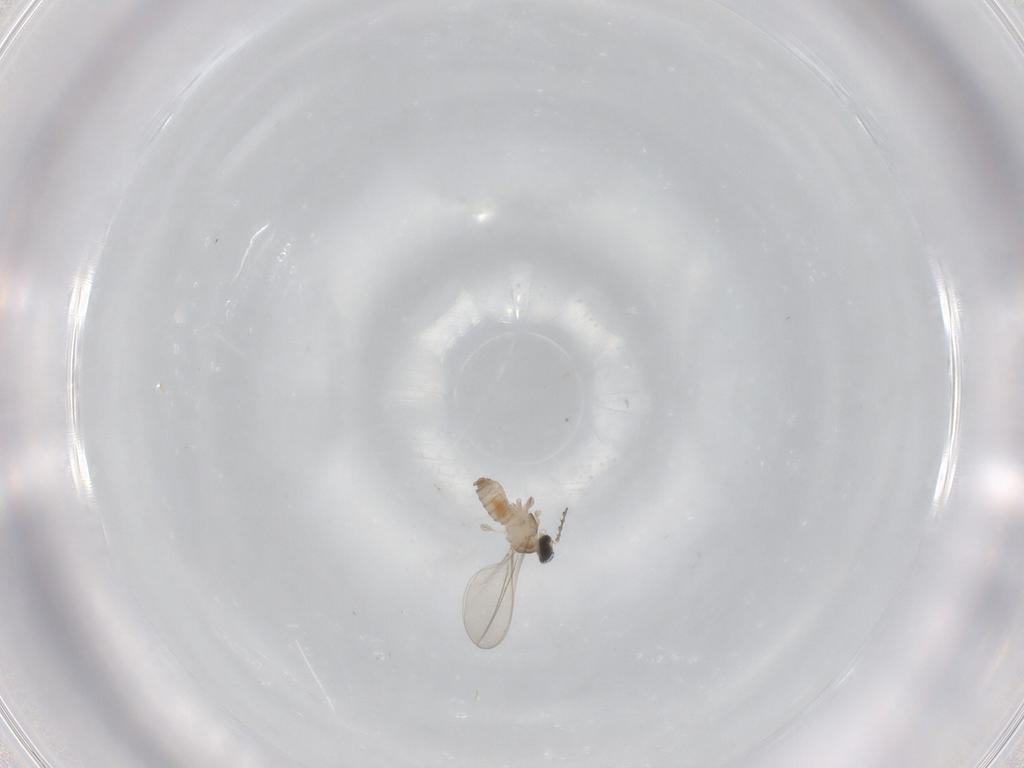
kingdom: Animalia
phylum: Arthropoda
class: Insecta
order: Diptera
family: Cecidomyiidae
